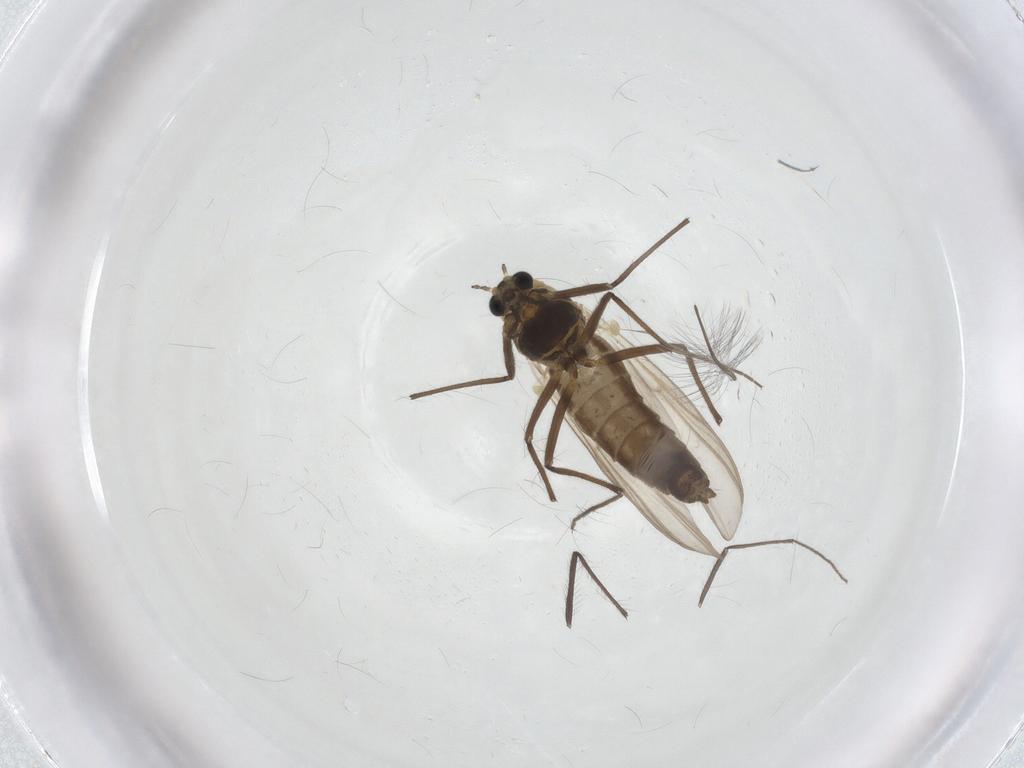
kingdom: Animalia
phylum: Arthropoda
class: Insecta
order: Diptera
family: Chironomidae
